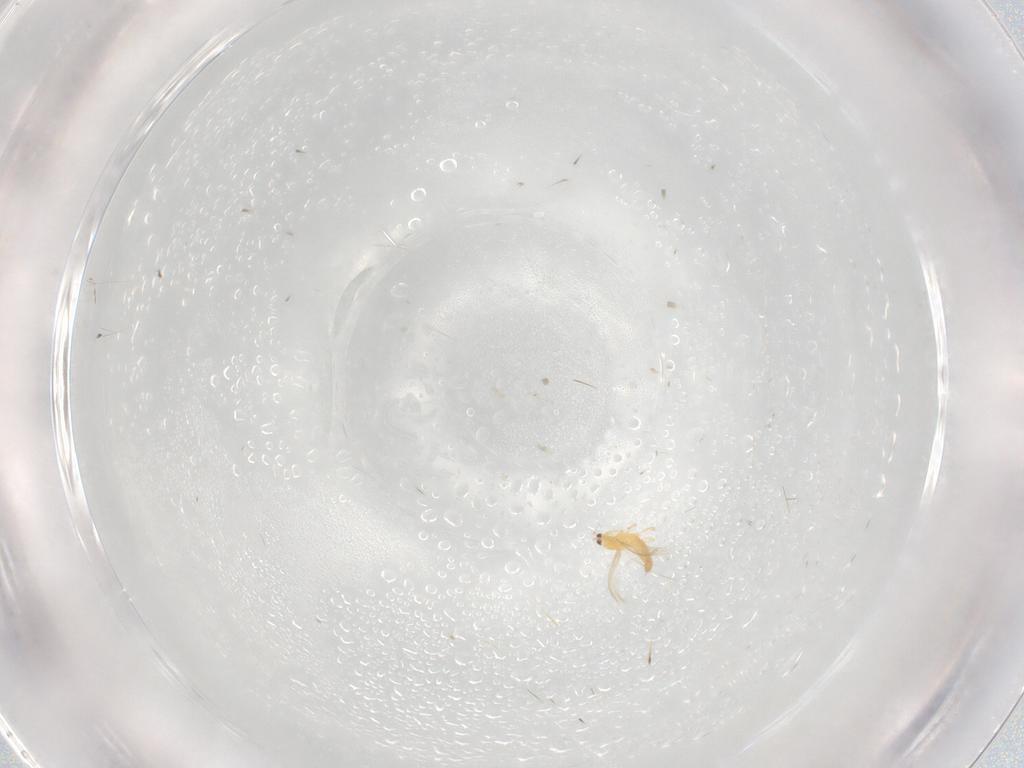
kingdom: Animalia
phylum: Arthropoda
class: Insecta
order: Thysanoptera
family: Thripidae
